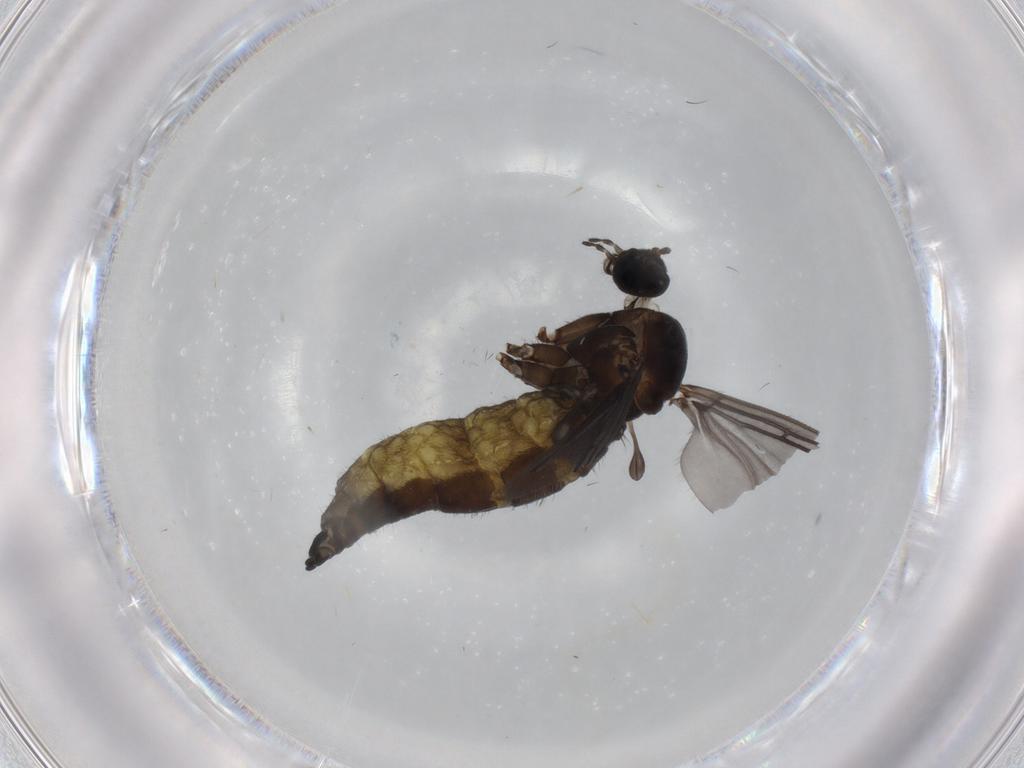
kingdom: Animalia
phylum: Arthropoda
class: Insecta
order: Diptera
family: Sciaridae
